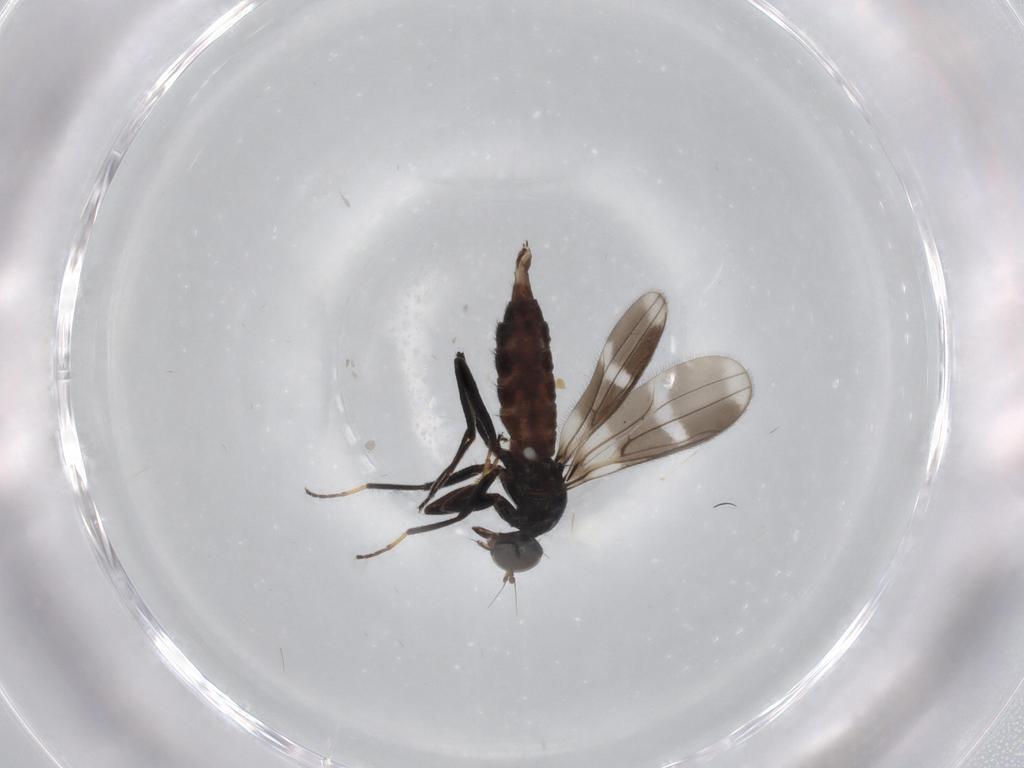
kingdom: Animalia
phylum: Arthropoda
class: Insecta
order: Diptera
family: Hybotidae
